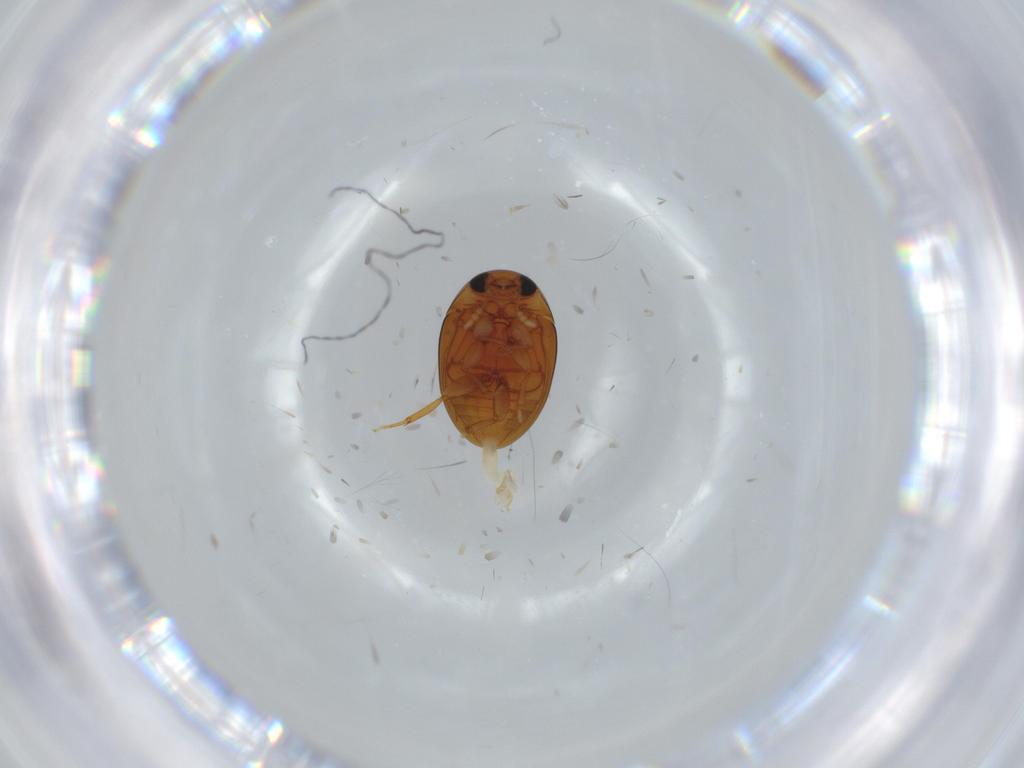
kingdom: Animalia
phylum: Arthropoda
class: Insecta
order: Coleoptera
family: Phalacridae
